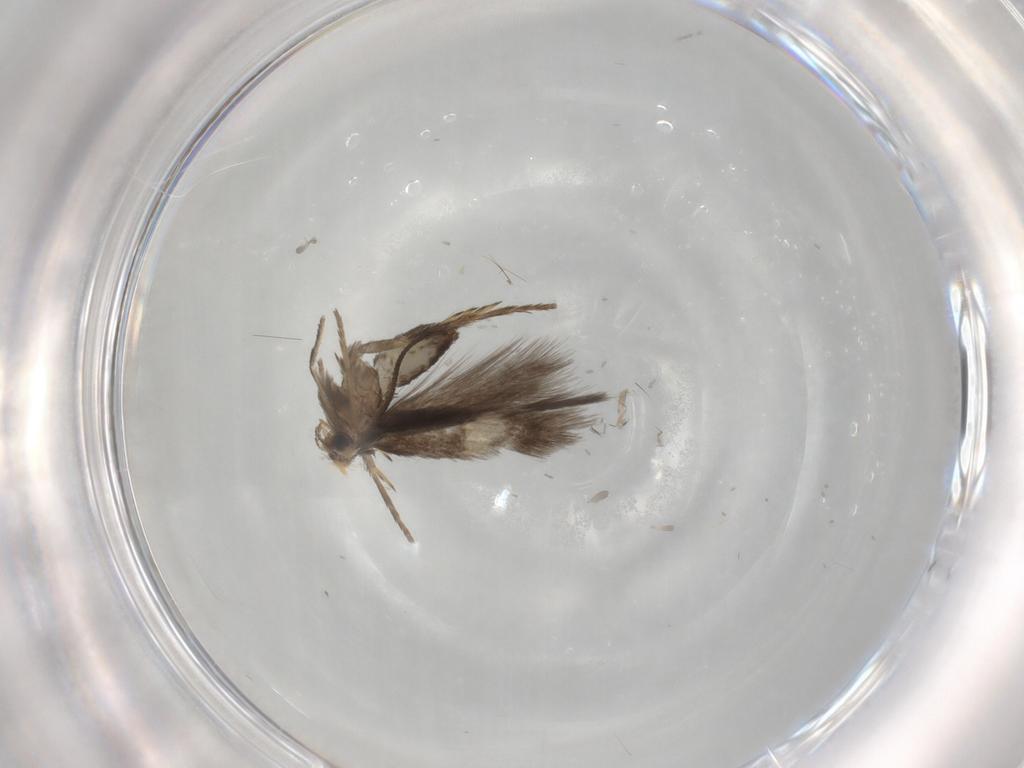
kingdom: Animalia
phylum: Arthropoda
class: Insecta
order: Lepidoptera
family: Nepticulidae
